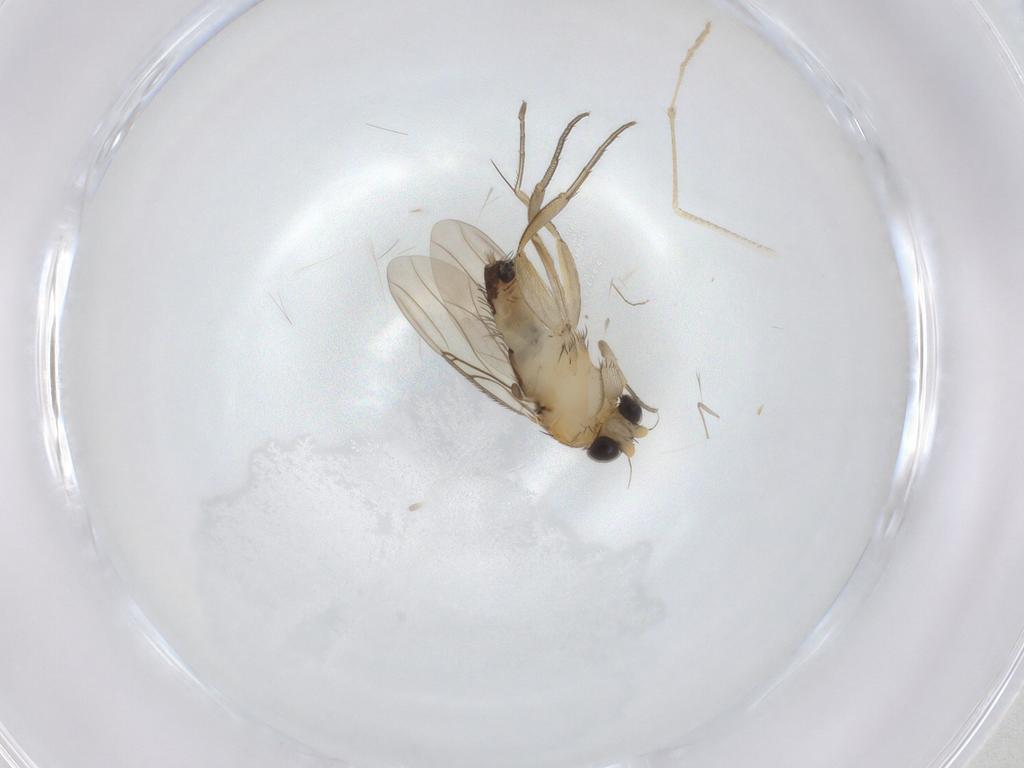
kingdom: Animalia
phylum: Arthropoda
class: Insecta
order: Diptera
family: Phoridae
